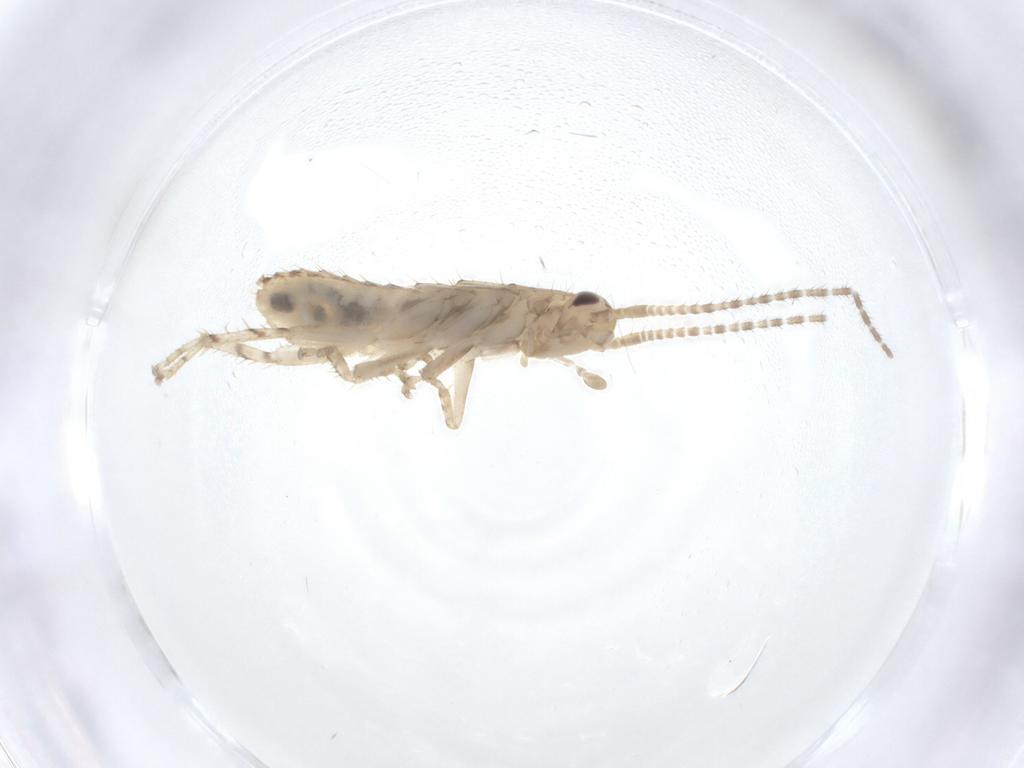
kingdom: Animalia
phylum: Arthropoda
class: Insecta
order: Blattodea
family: Ectobiidae
